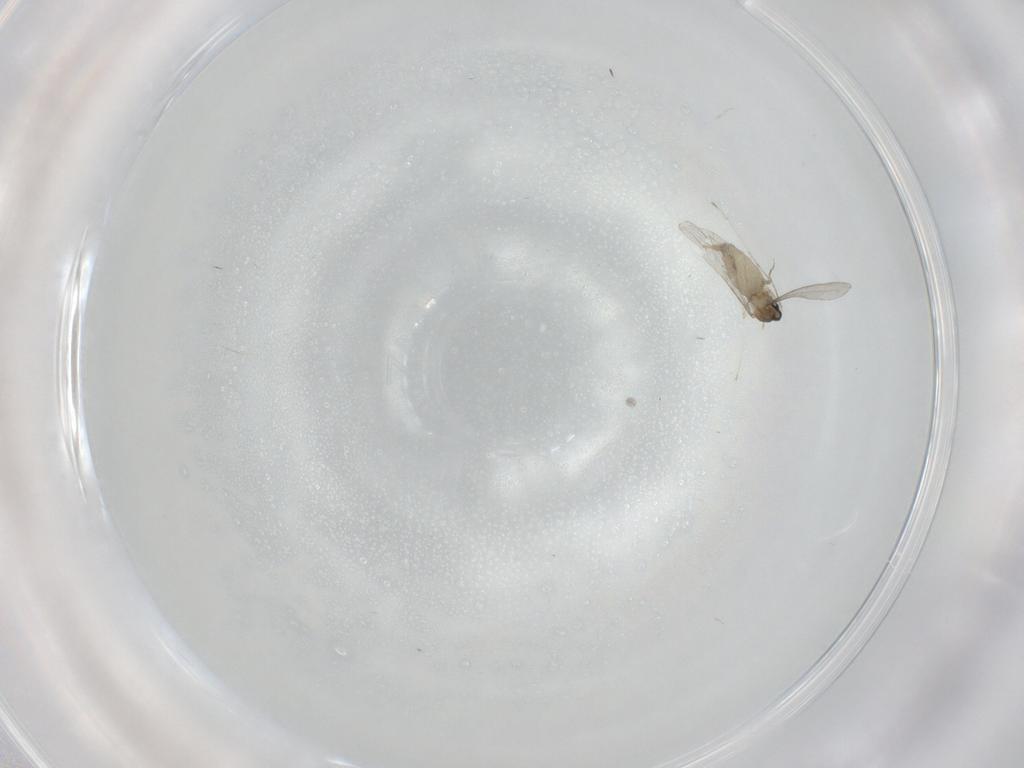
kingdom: Animalia
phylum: Arthropoda
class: Insecta
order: Diptera
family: Cecidomyiidae
